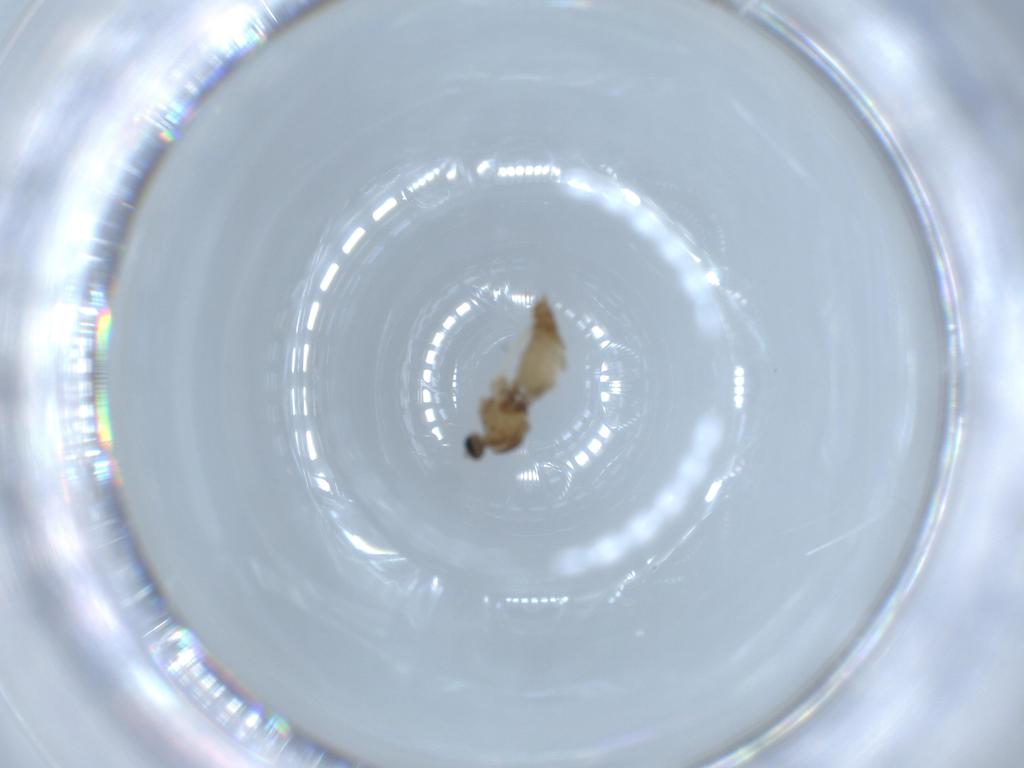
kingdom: Animalia
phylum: Arthropoda
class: Insecta
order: Diptera
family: Hybotidae
